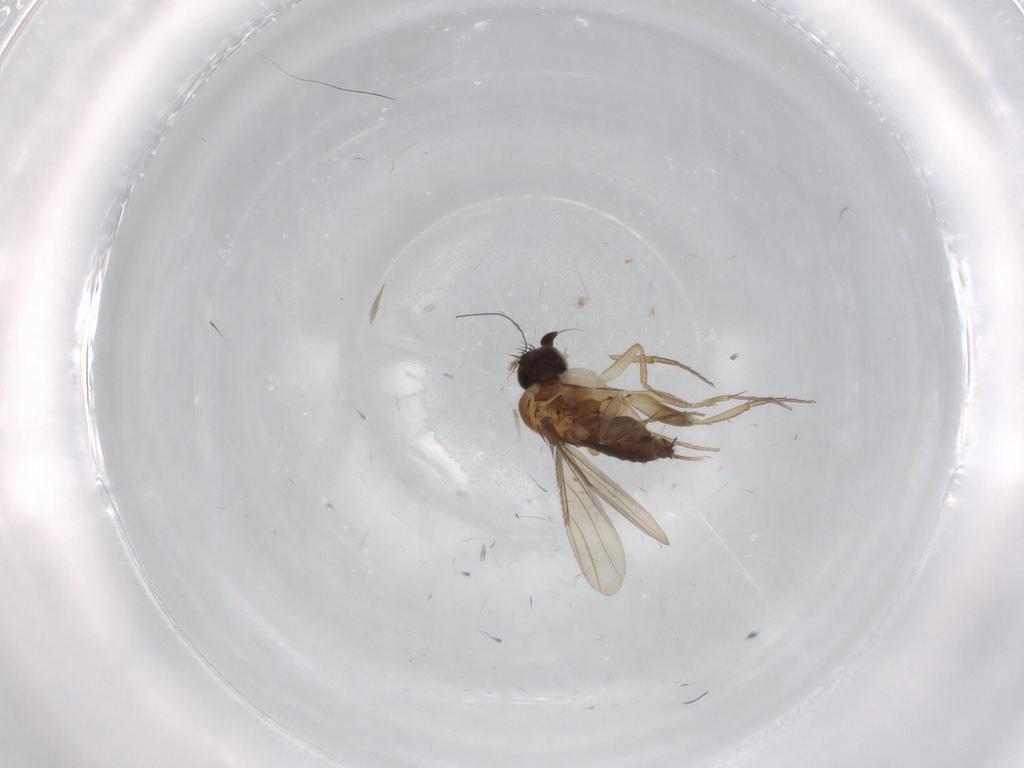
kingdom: Animalia
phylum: Arthropoda
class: Insecta
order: Diptera
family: Phoridae
